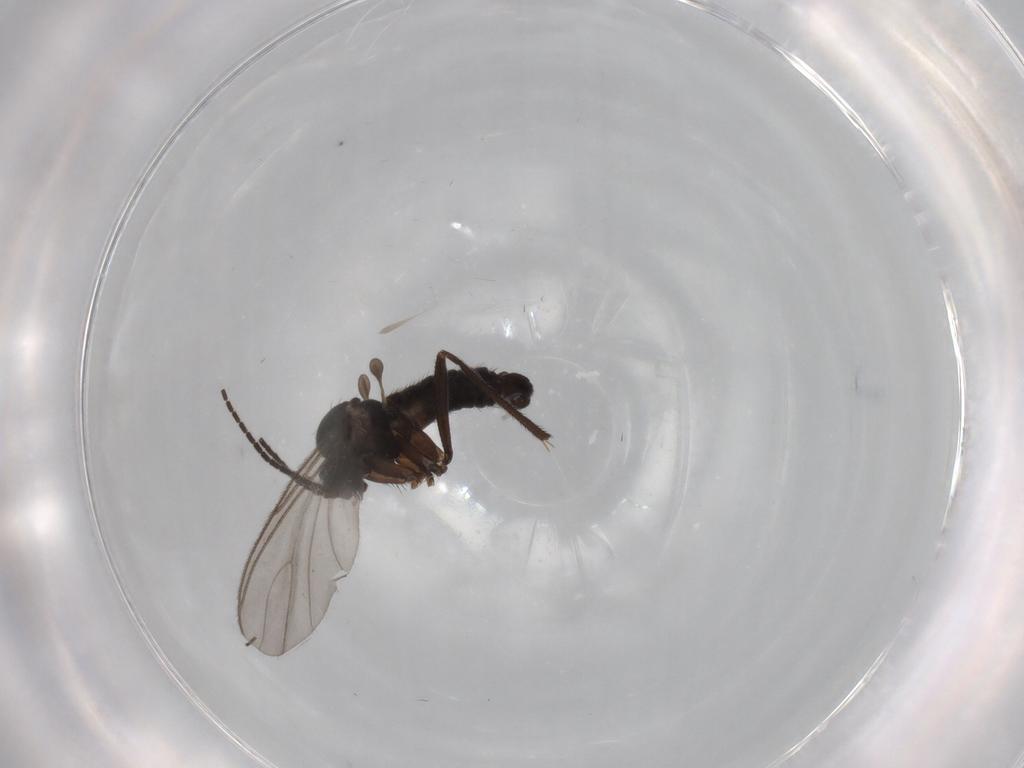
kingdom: Animalia
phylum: Arthropoda
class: Insecta
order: Diptera
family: Sciaridae
